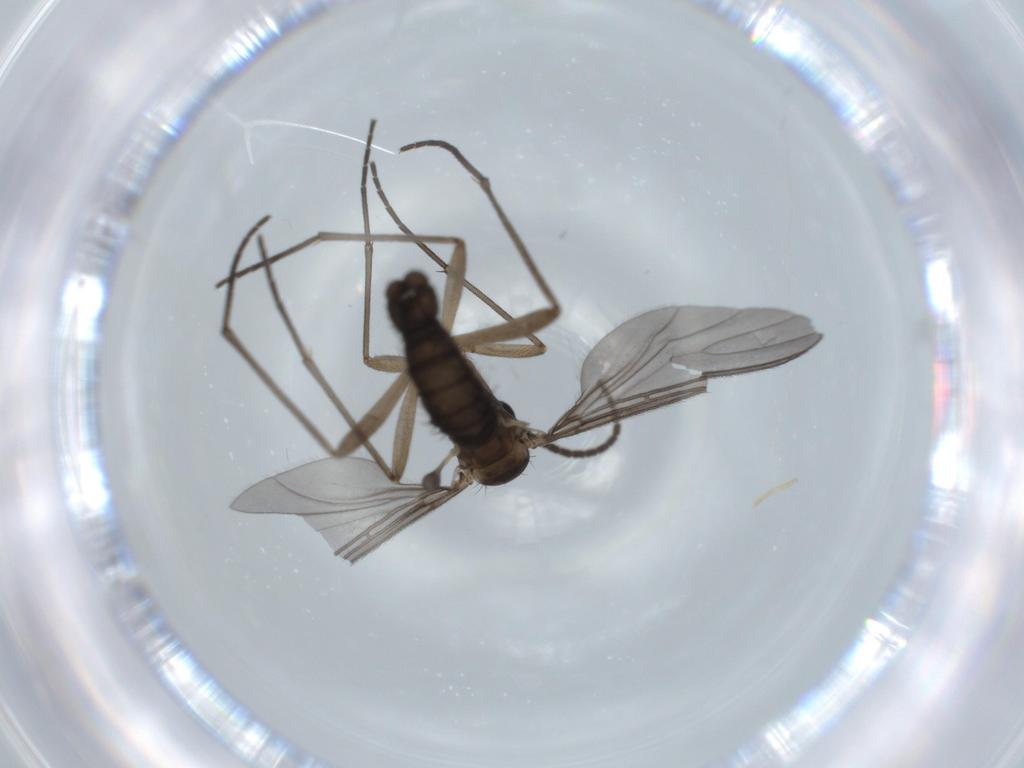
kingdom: Animalia
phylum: Arthropoda
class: Insecta
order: Diptera
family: Sciaridae
